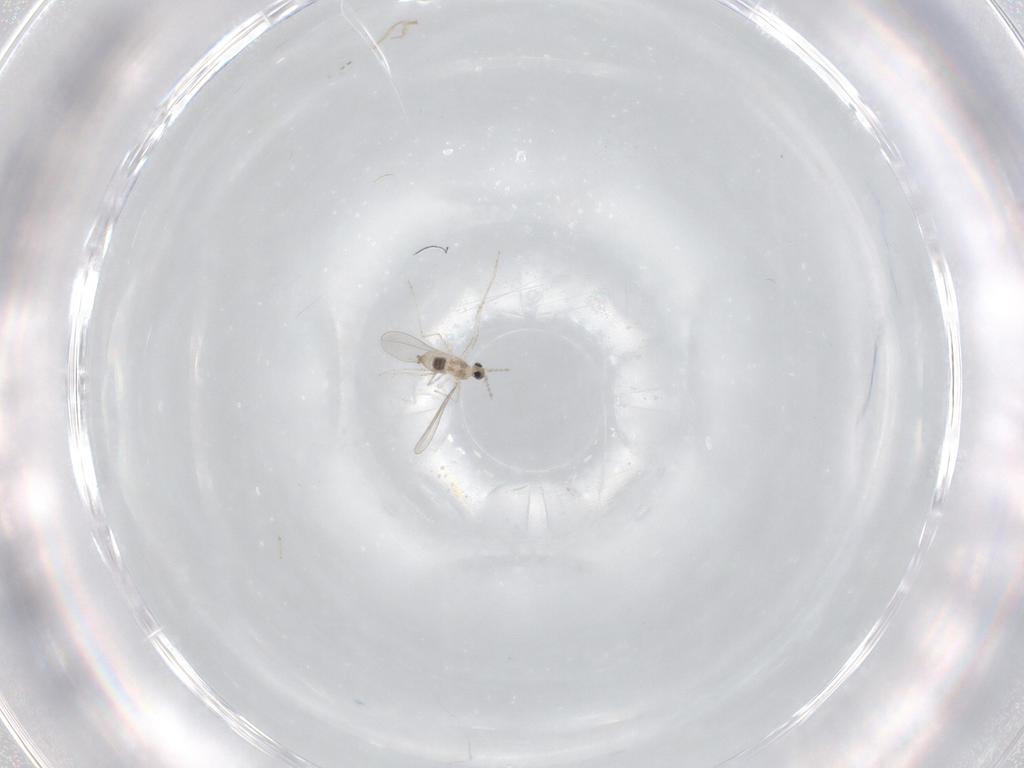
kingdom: Animalia
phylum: Arthropoda
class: Insecta
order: Diptera
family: Cecidomyiidae
